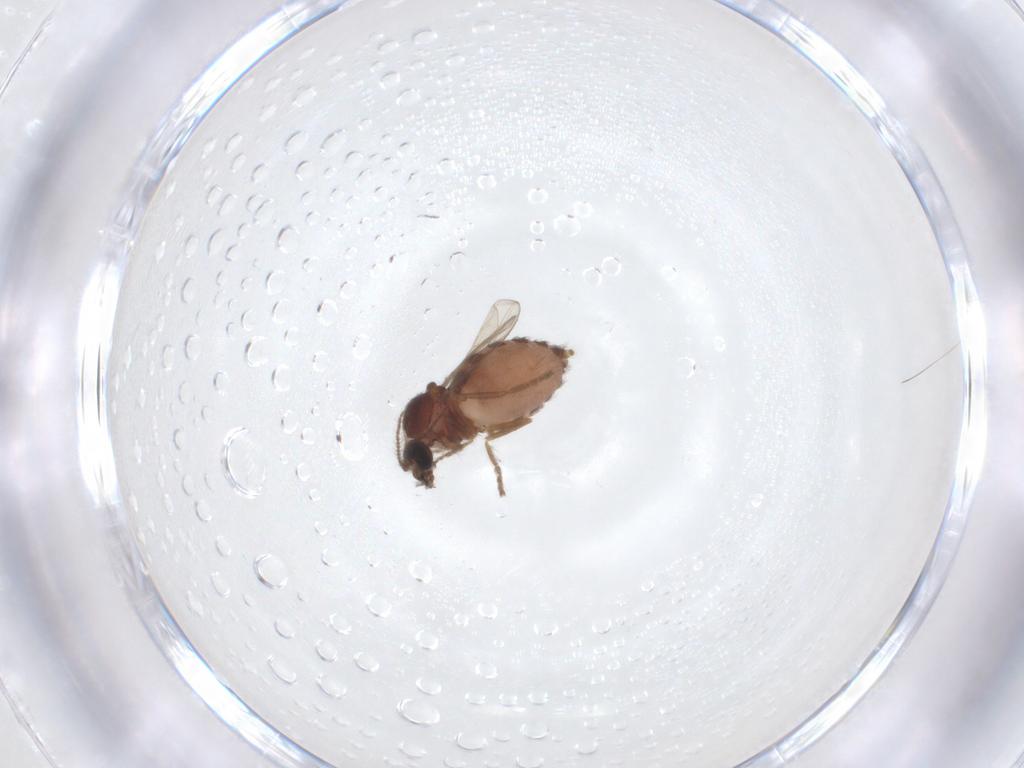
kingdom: Animalia
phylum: Arthropoda
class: Insecta
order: Diptera
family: Ceratopogonidae
